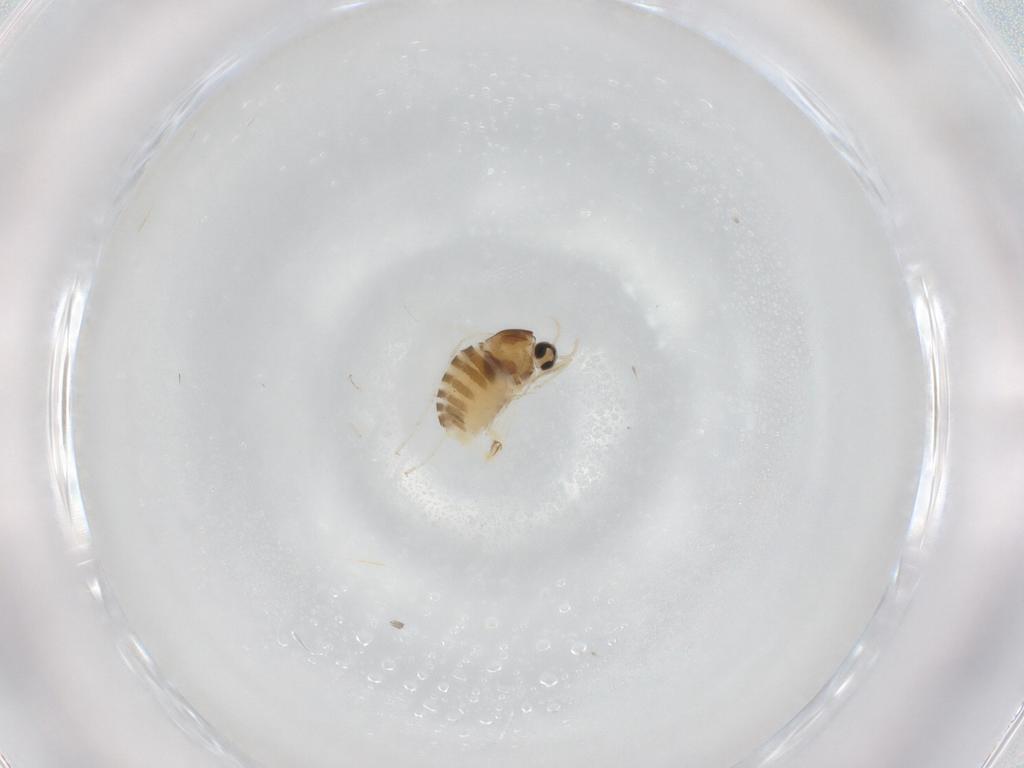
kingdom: Animalia
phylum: Arthropoda
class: Insecta
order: Diptera
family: Cecidomyiidae
